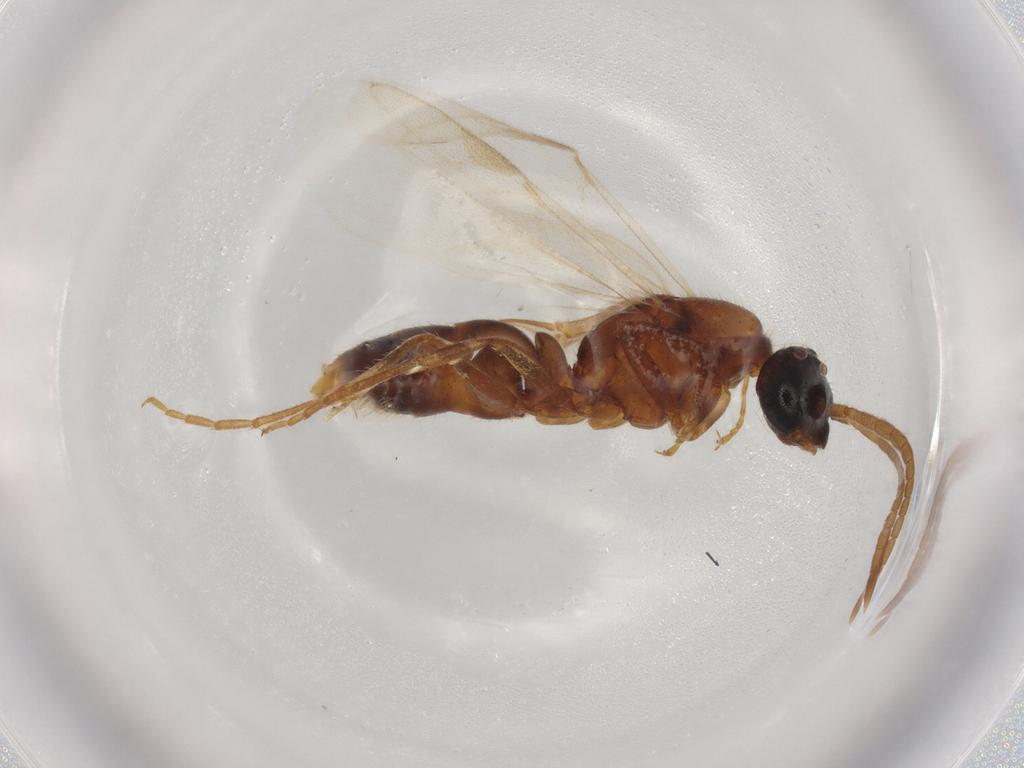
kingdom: Animalia
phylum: Arthropoda
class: Insecta
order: Hymenoptera
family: Formicidae
